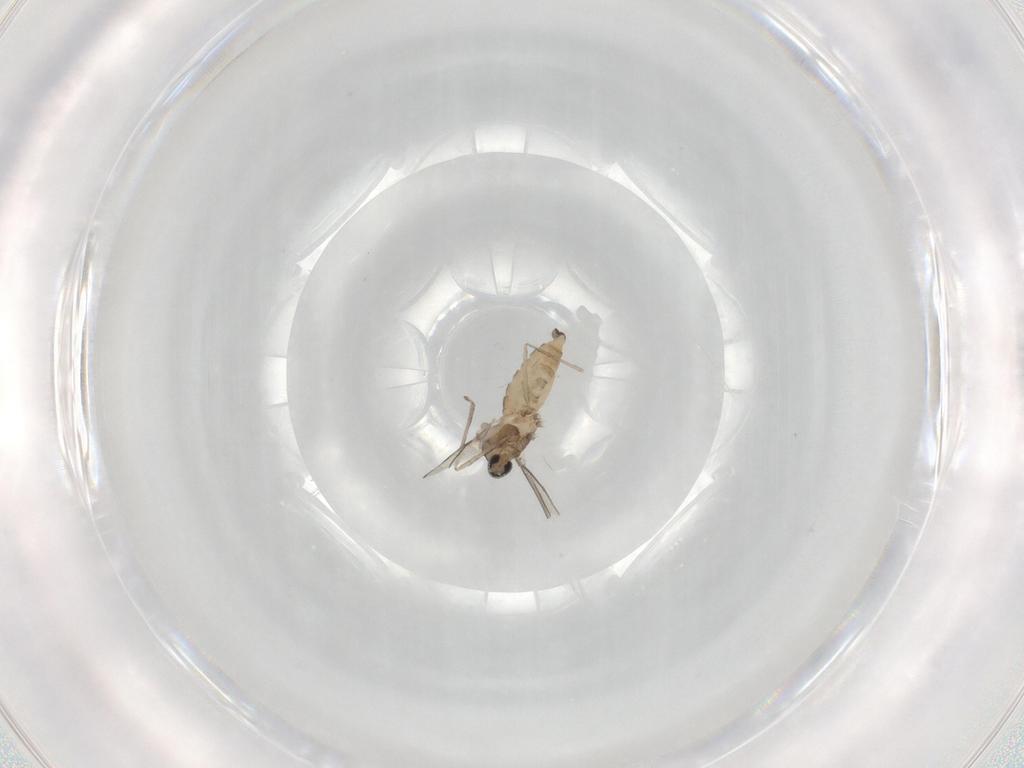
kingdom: Animalia
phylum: Arthropoda
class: Insecta
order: Diptera
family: Cecidomyiidae
